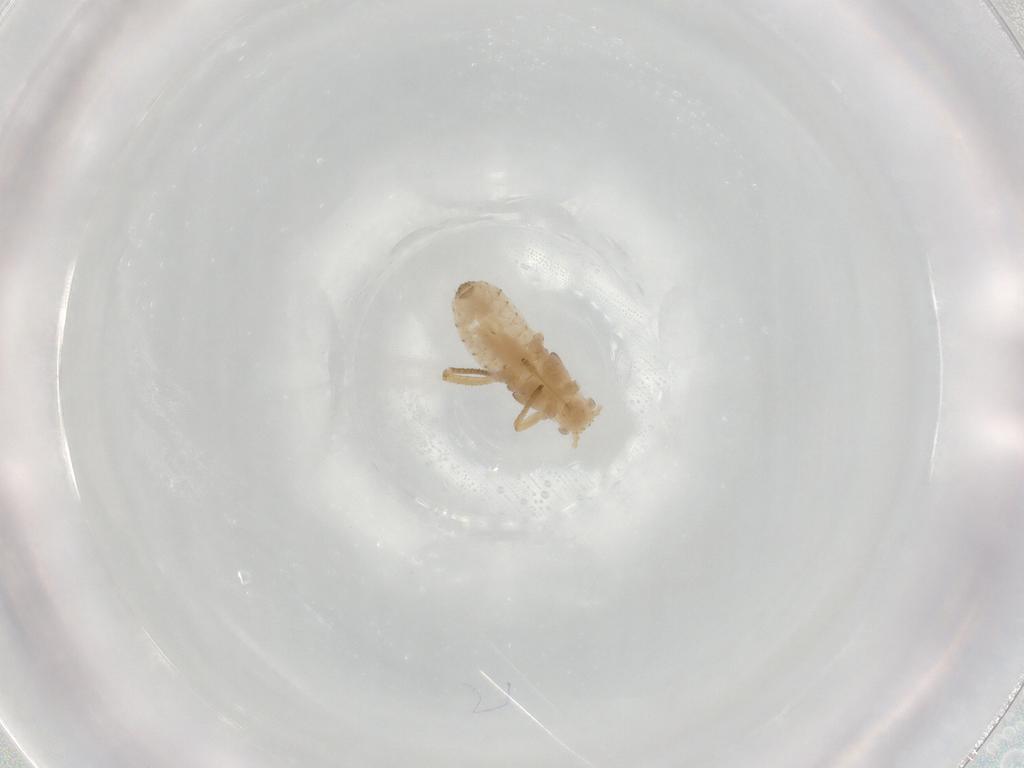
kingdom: Animalia
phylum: Arthropoda
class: Insecta
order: Hemiptera
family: Aphididae
